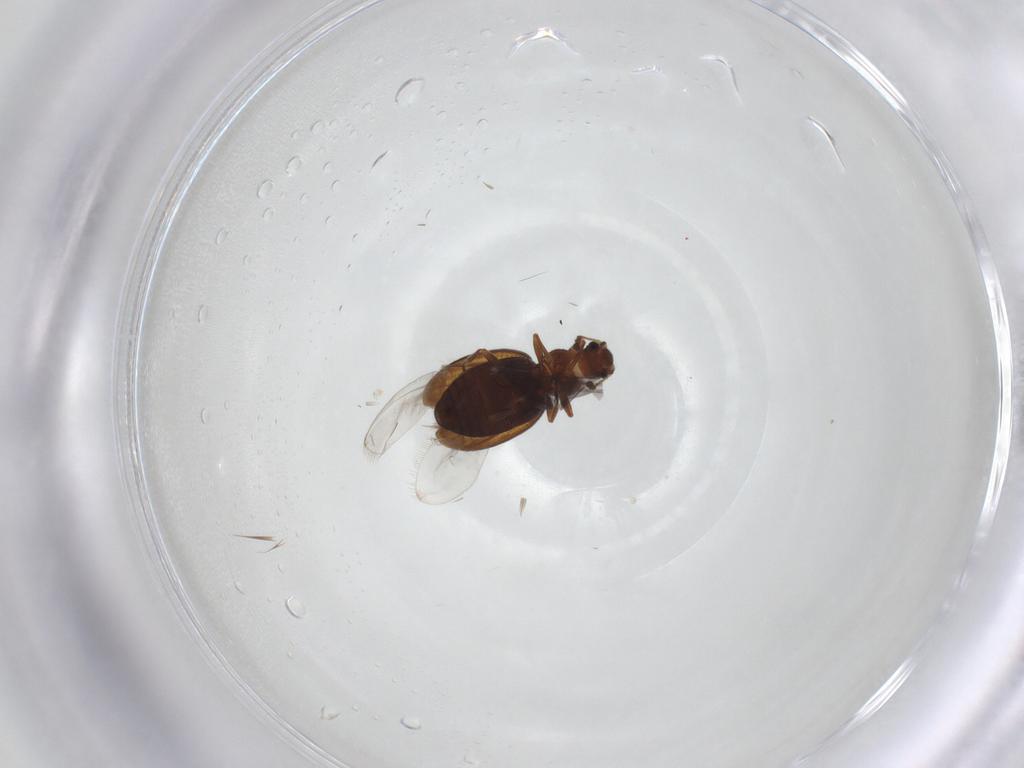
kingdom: Animalia
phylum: Arthropoda
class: Insecta
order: Coleoptera
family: Latridiidae
